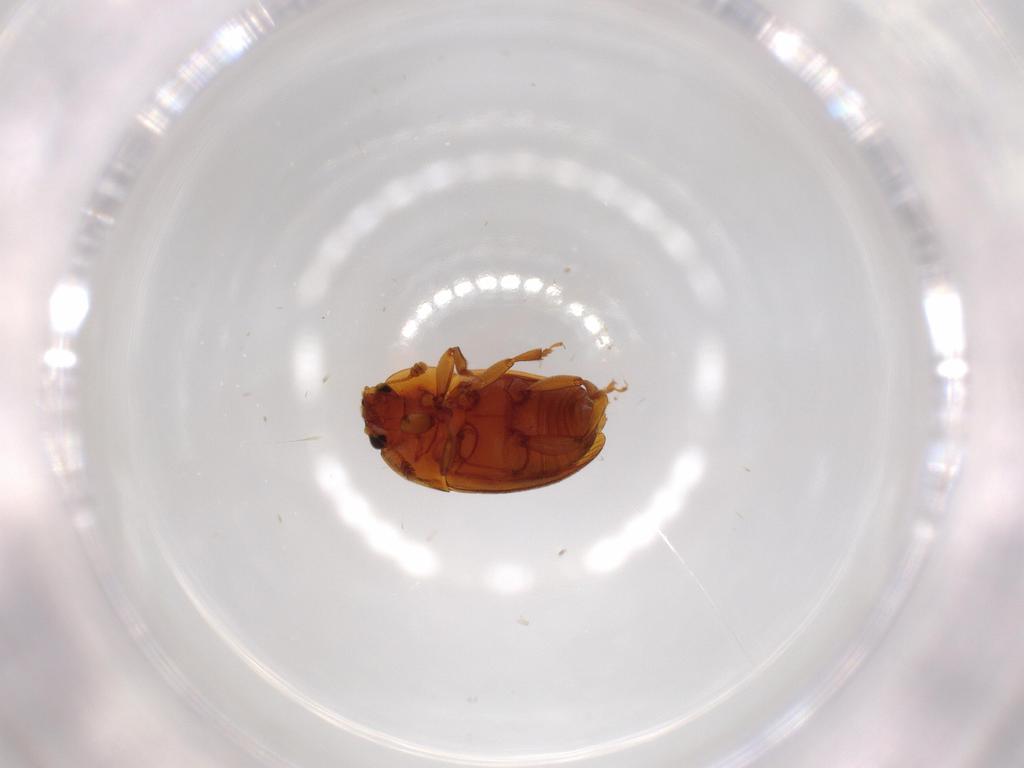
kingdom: Animalia
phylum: Arthropoda
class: Insecta
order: Coleoptera
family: Cleridae
